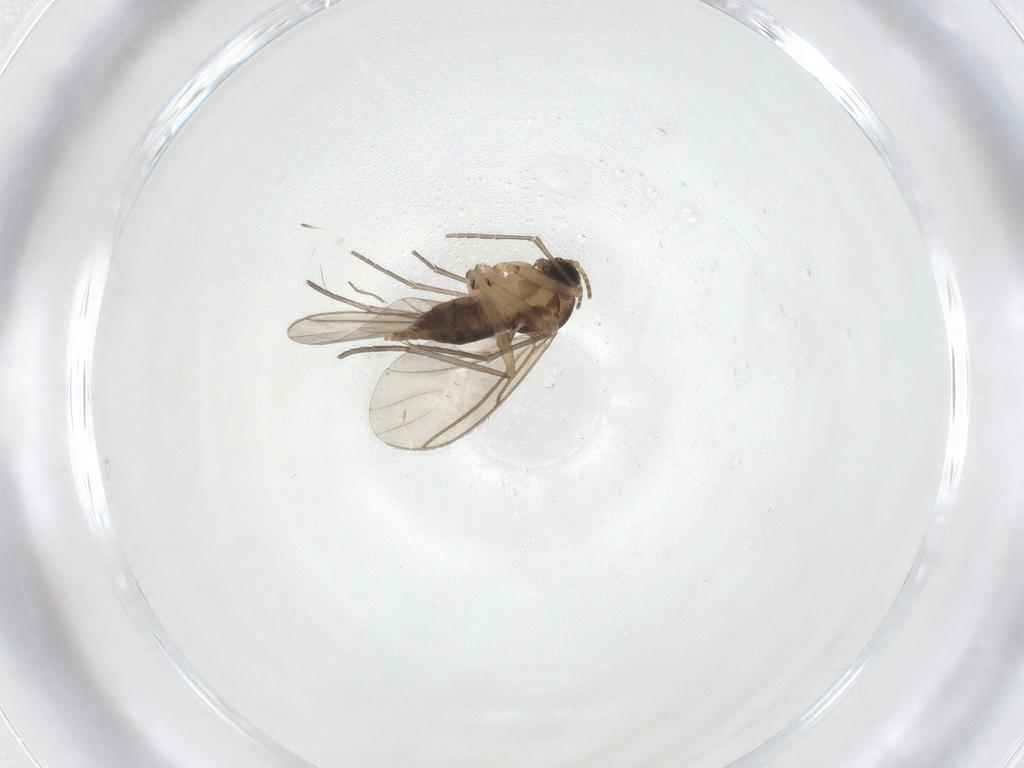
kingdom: Animalia
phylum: Arthropoda
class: Insecta
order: Diptera
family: Sciaridae
